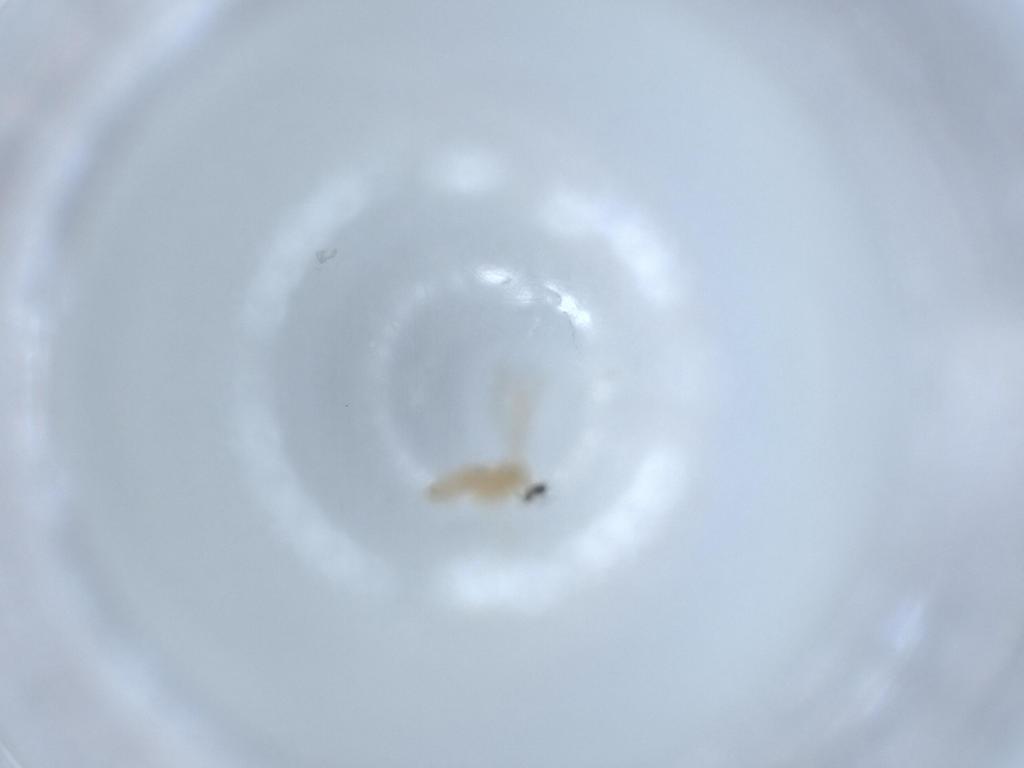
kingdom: Animalia
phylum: Arthropoda
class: Insecta
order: Diptera
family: Cecidomyiidae
